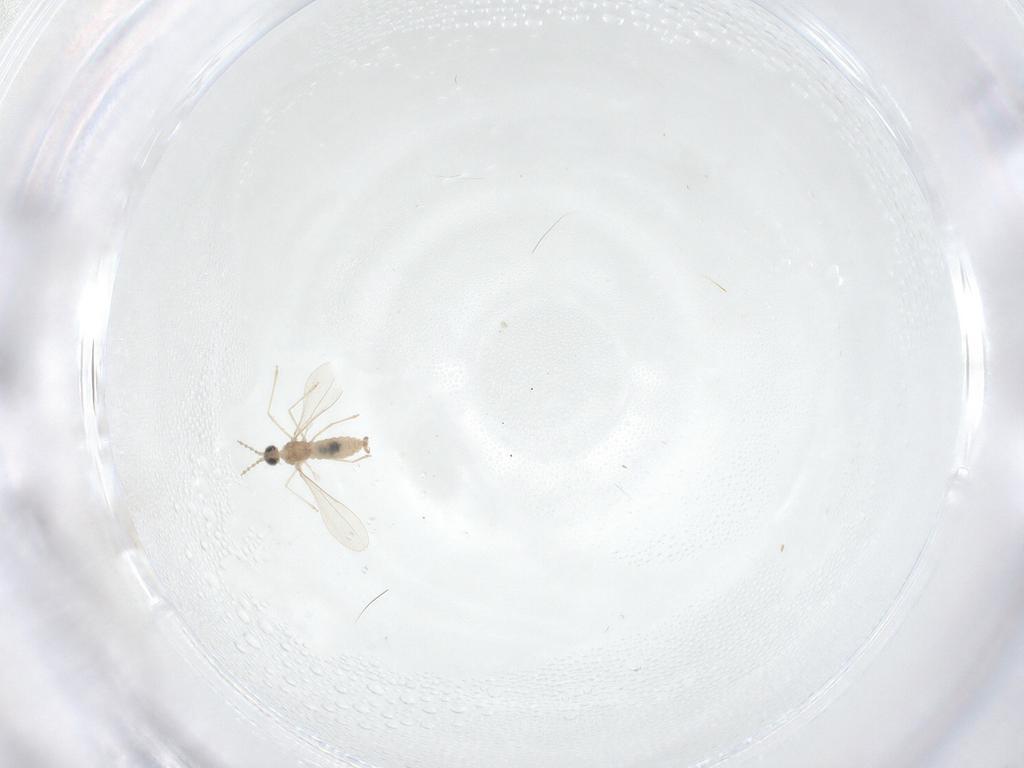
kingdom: Animalia
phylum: Arthropoda
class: Insecta
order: Diptera
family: Cecidomyiidae
